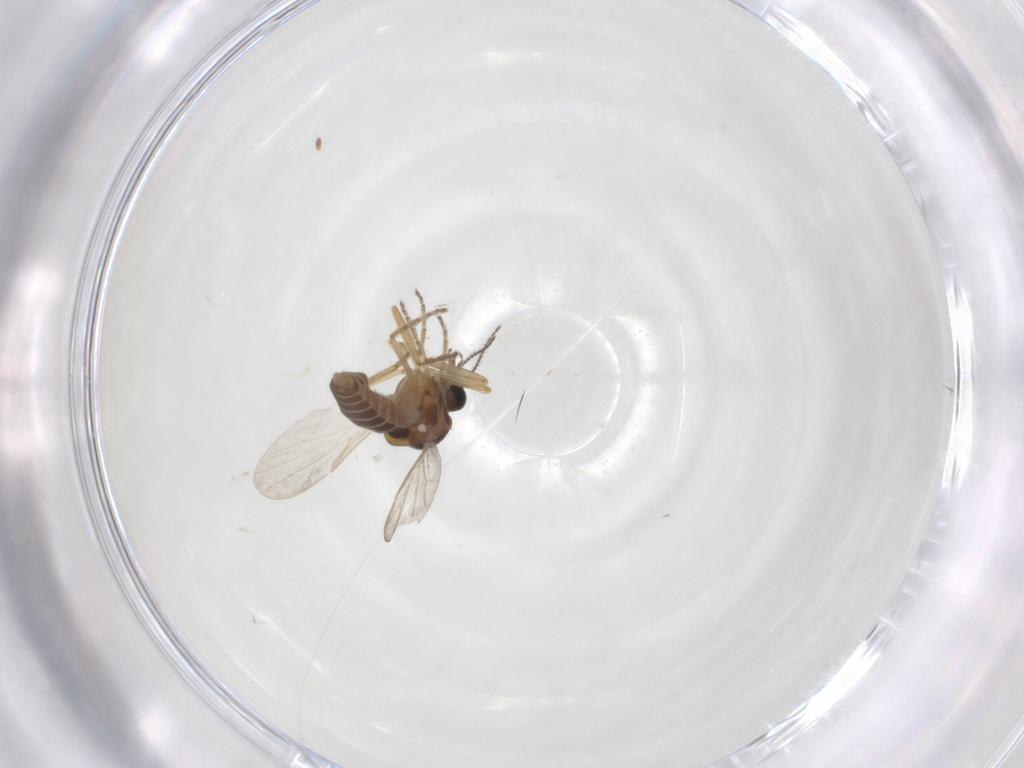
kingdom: Animalia
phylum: Arthropoda
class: Insecta
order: Diptera
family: Ceratopogonidae
